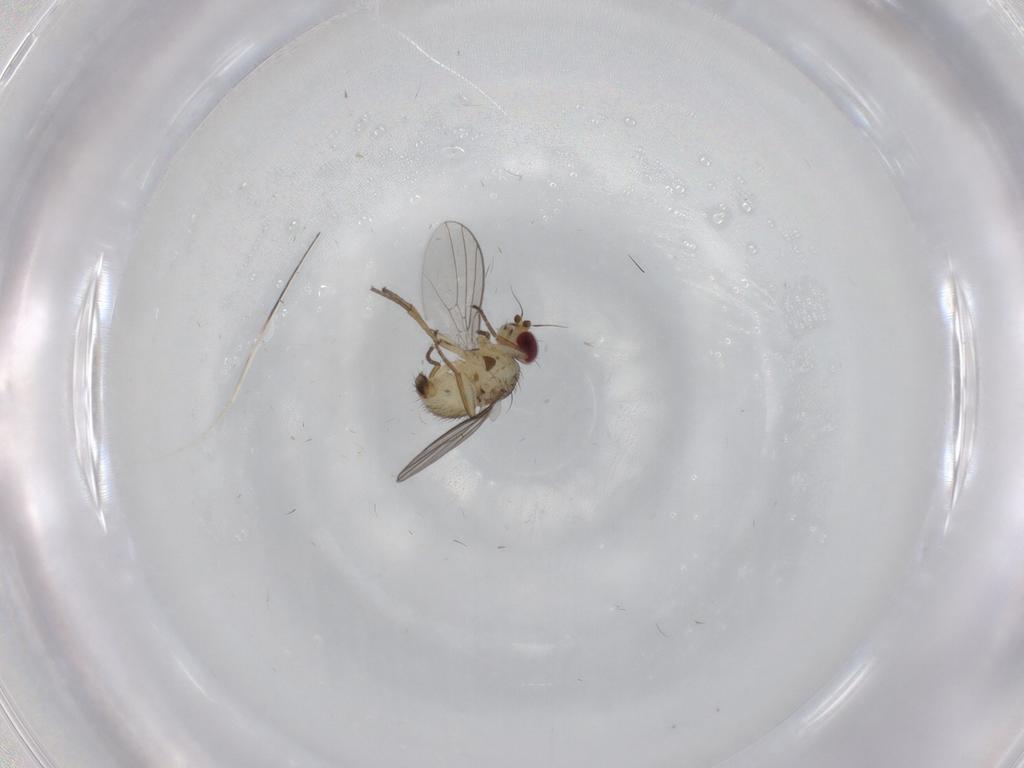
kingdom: Animalia
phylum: Arthropoda
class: Insecta
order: Diptera
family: Agromyzidae
